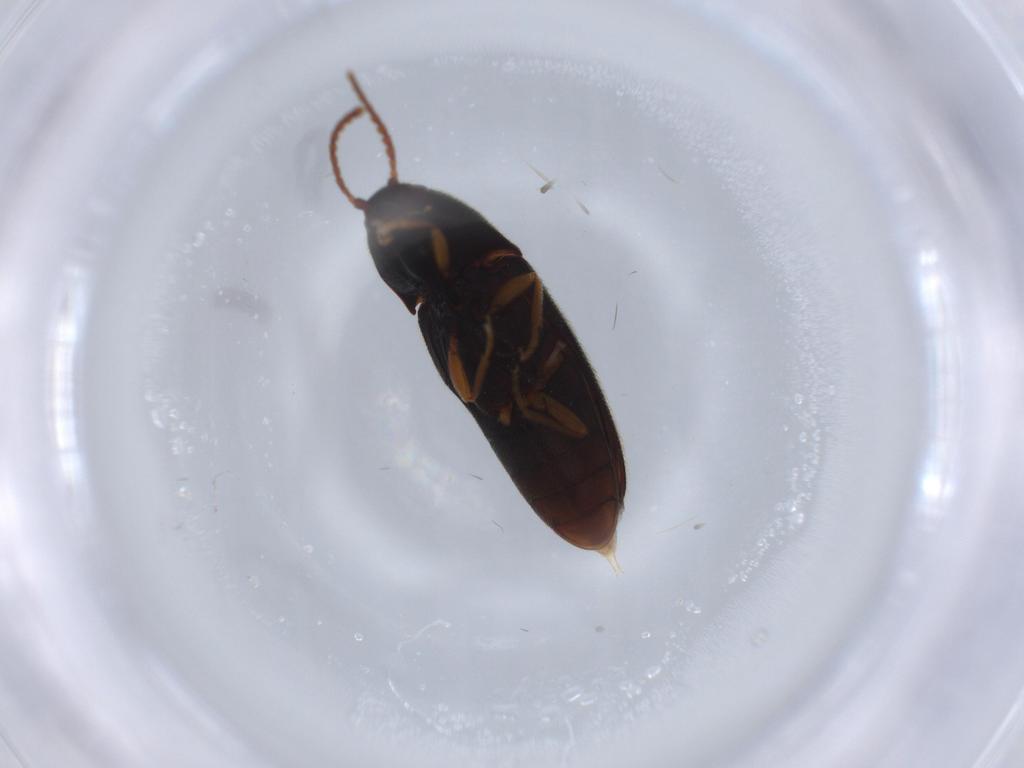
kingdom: Animalia
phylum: Arthropoda
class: Insecta
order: Coleoptera
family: Elateridae
